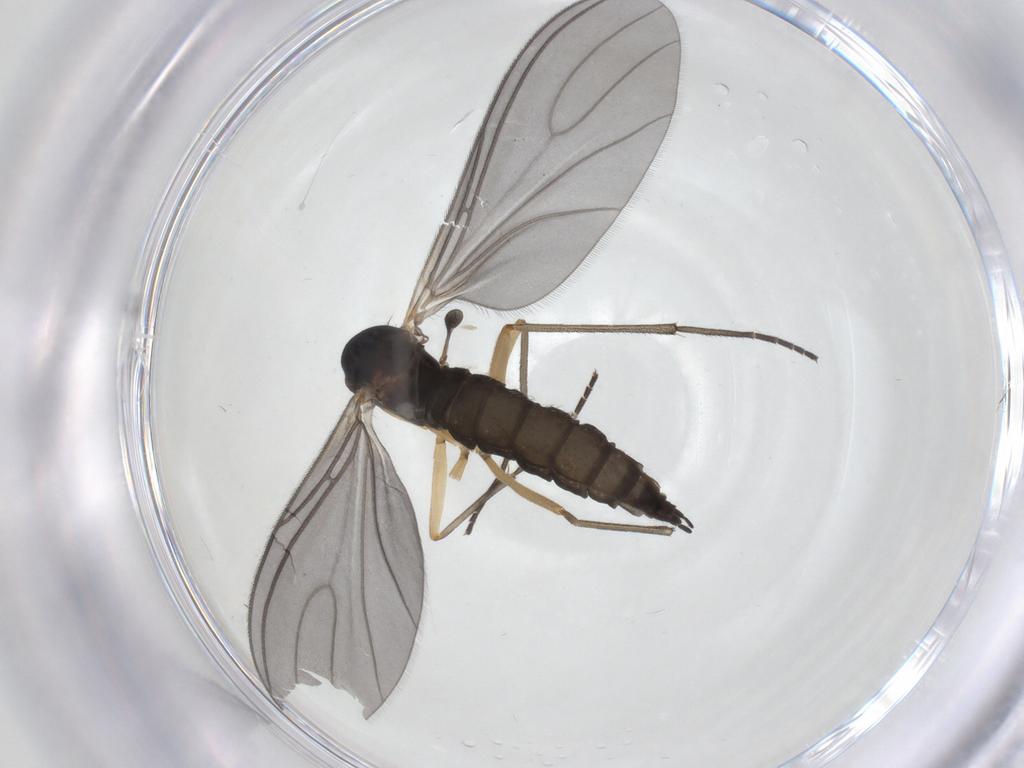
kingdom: Animalia
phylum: Arthropoda
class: Insecta
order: Diptera
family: Sciaridae
